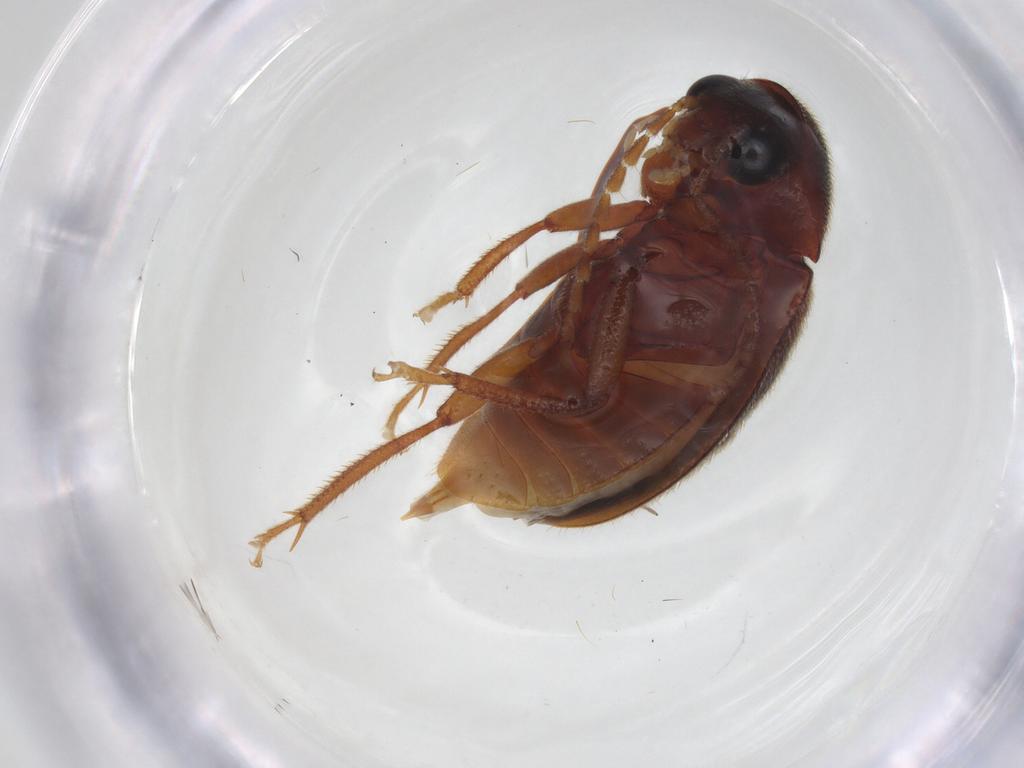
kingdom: Animalia
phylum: Arthropoda
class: Insecta
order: Coleoptera
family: Ptilodactylidae
